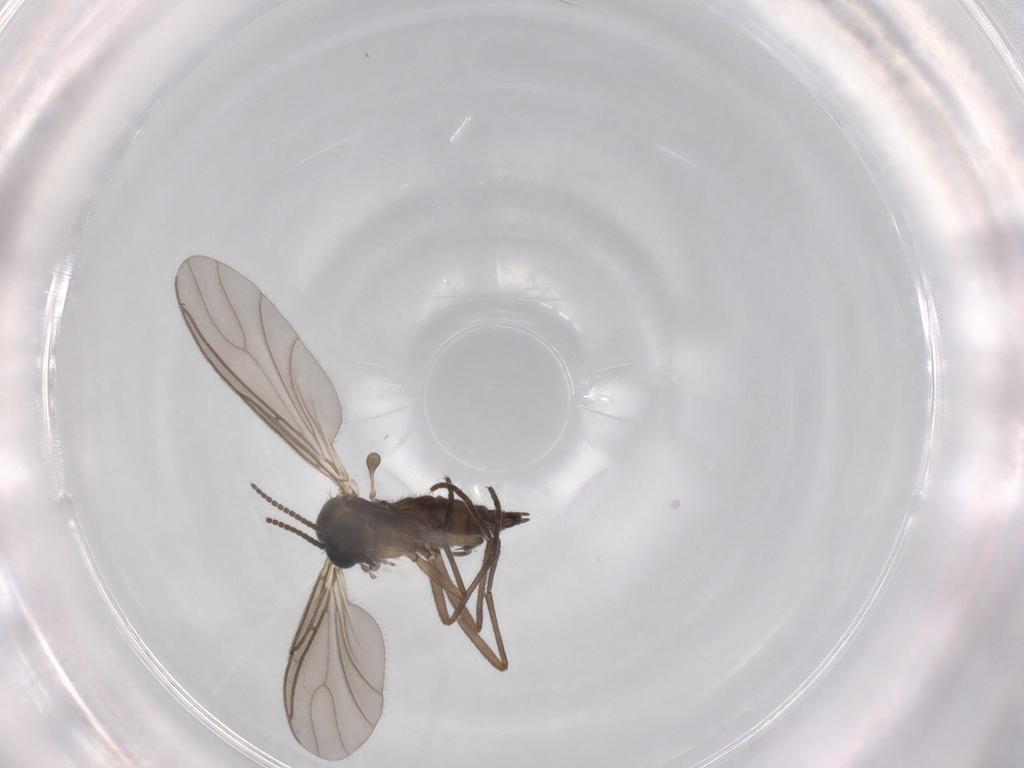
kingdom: Animalia
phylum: Arthropoda
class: Insecta
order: Diptera
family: Sciaridae
